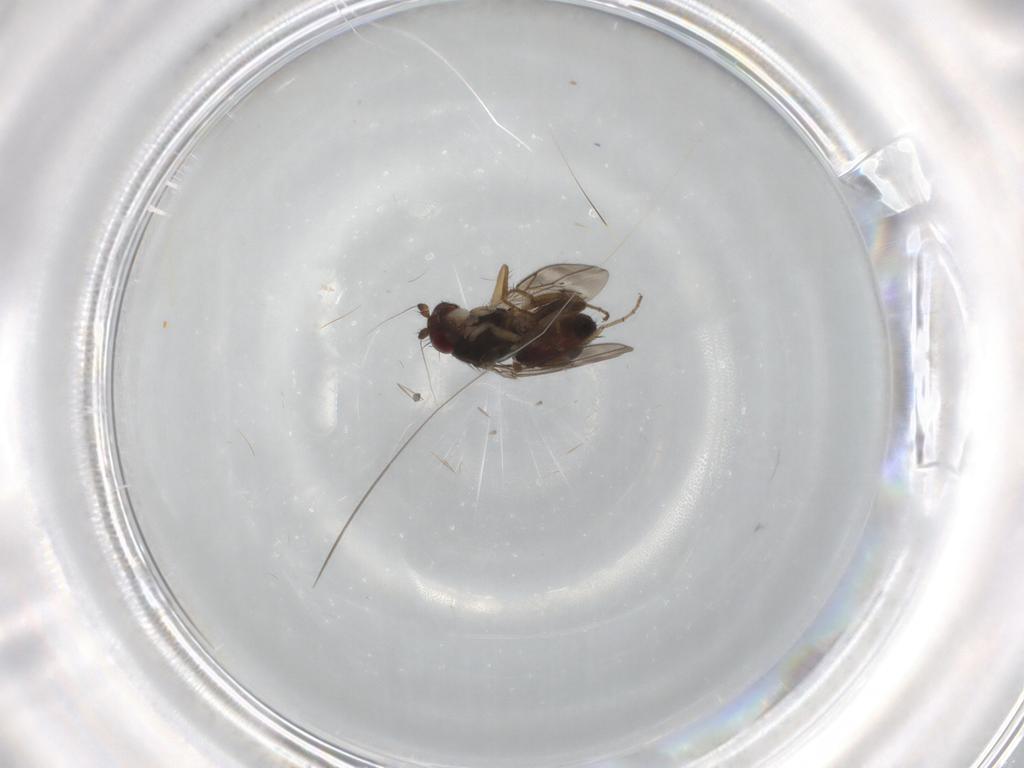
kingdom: Animalia
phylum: Arthropoda
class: Insecta
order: Diptera
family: Sphaeroceridae
